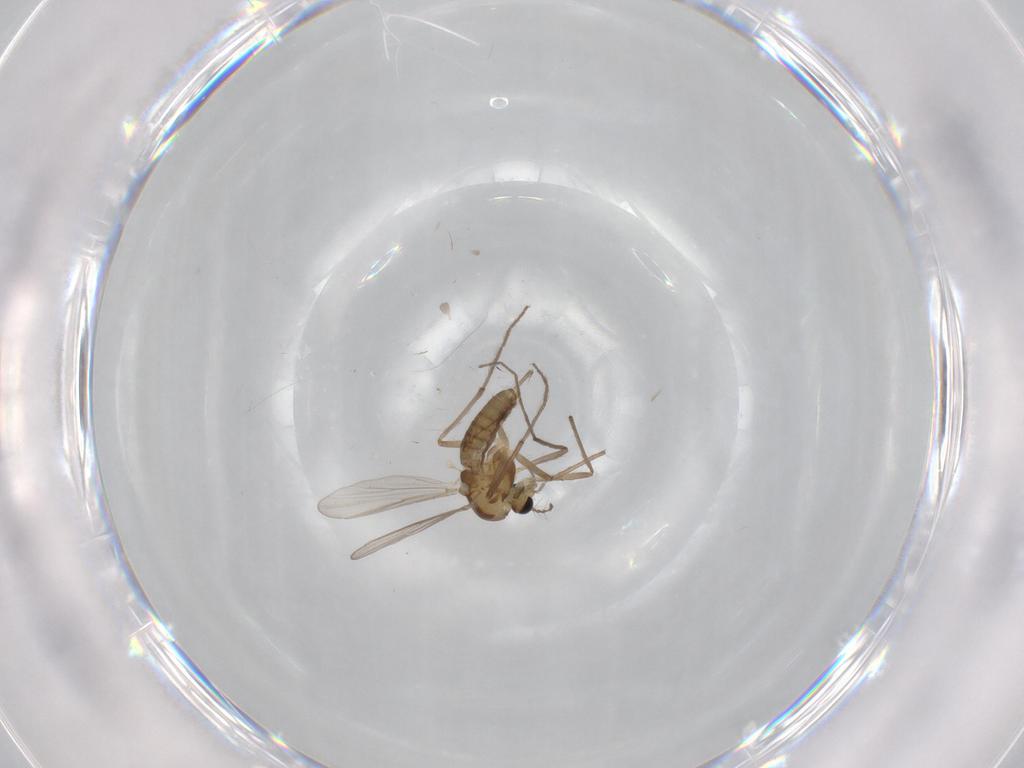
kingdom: Animalia
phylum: Arthropoda
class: Insecta
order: Diptera
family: Chironomidae
